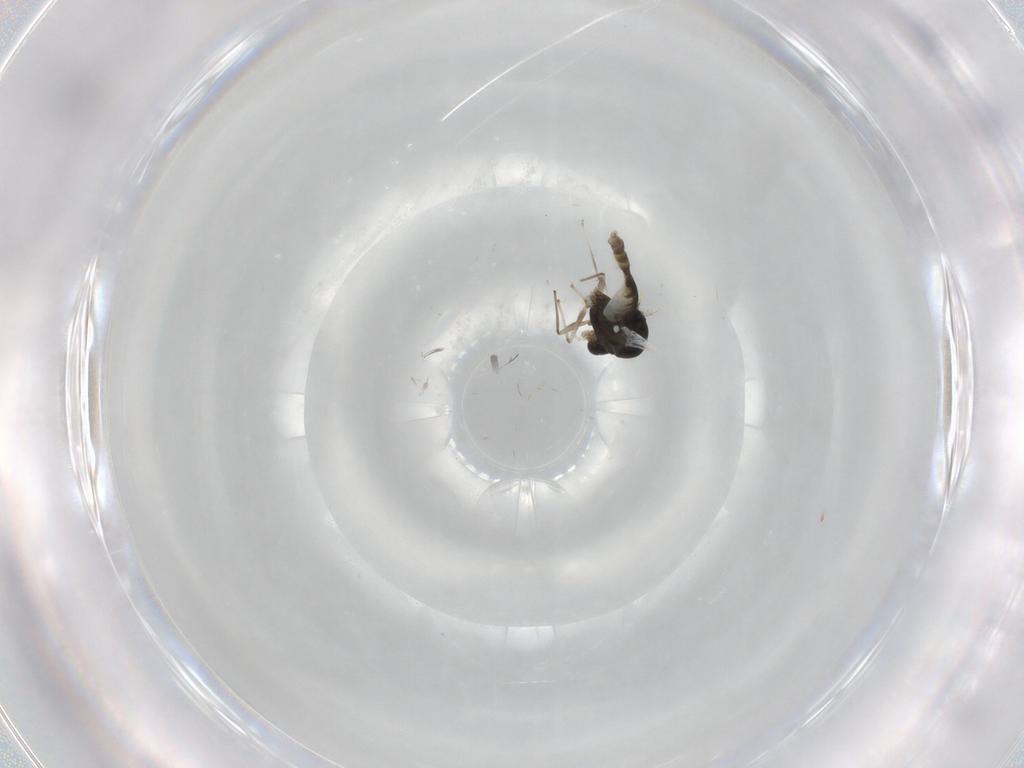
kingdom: Animalia
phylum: Arthropoda
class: Insecta
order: Diptera
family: Chironomidae
